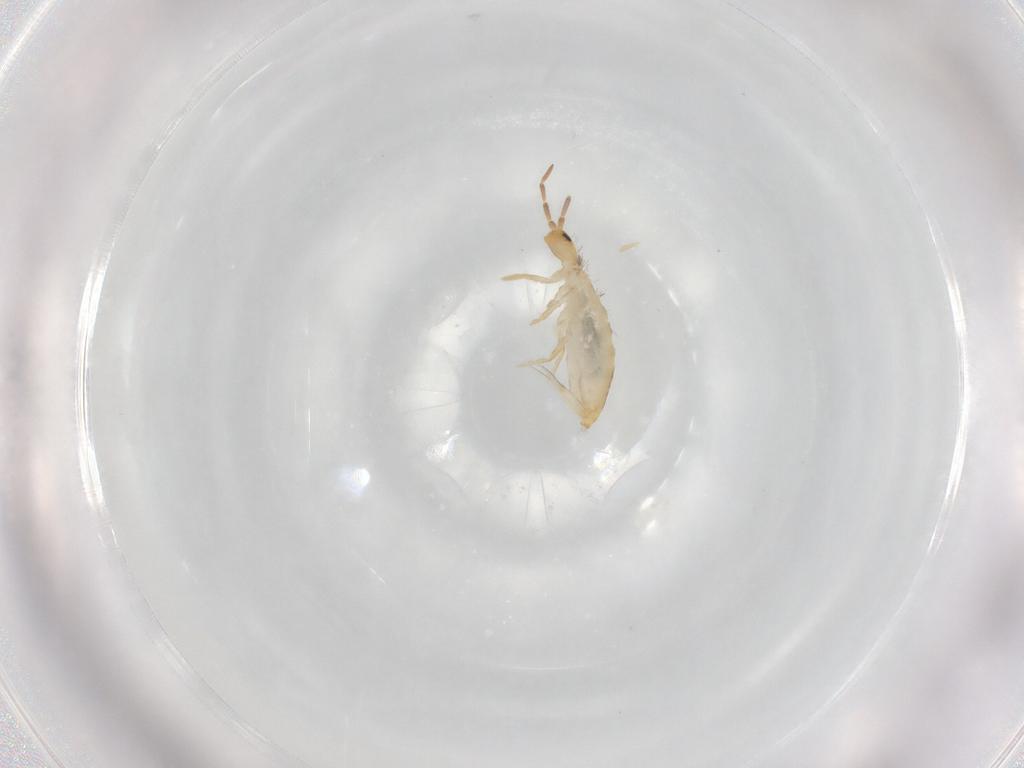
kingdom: Animalia
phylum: Arthropoda
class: Collembola
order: Entomobryomorpha
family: Entomobryidae
